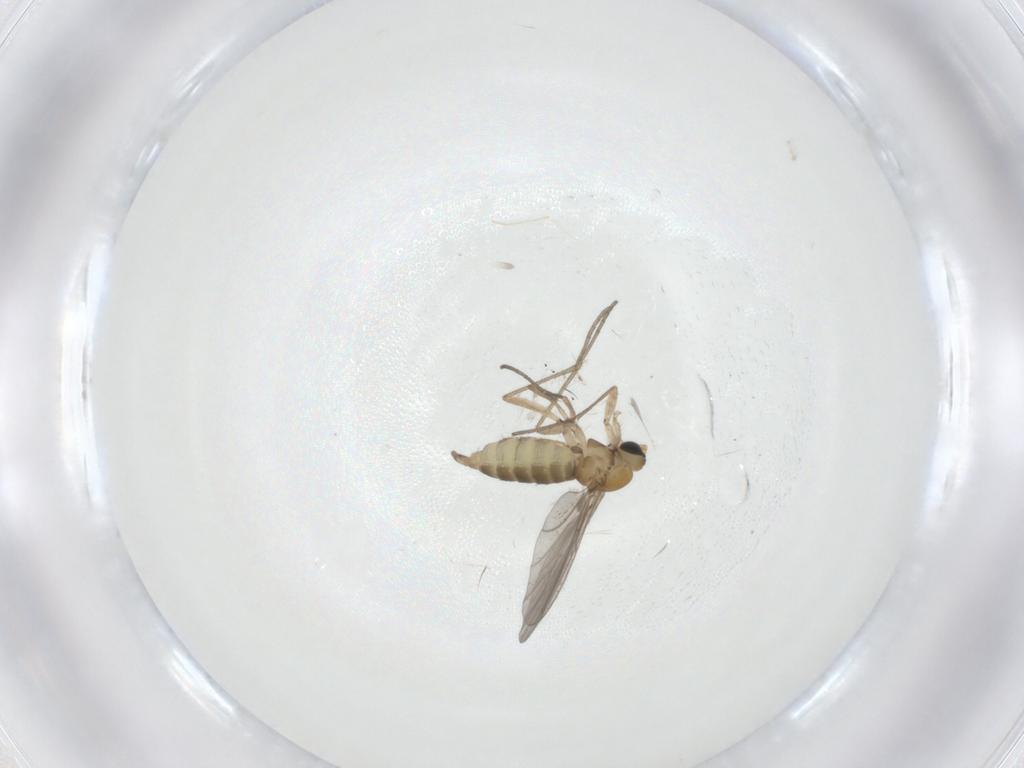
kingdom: Animalia
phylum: Arthropoda
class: Insecta
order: Diptera
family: Sciaridae
